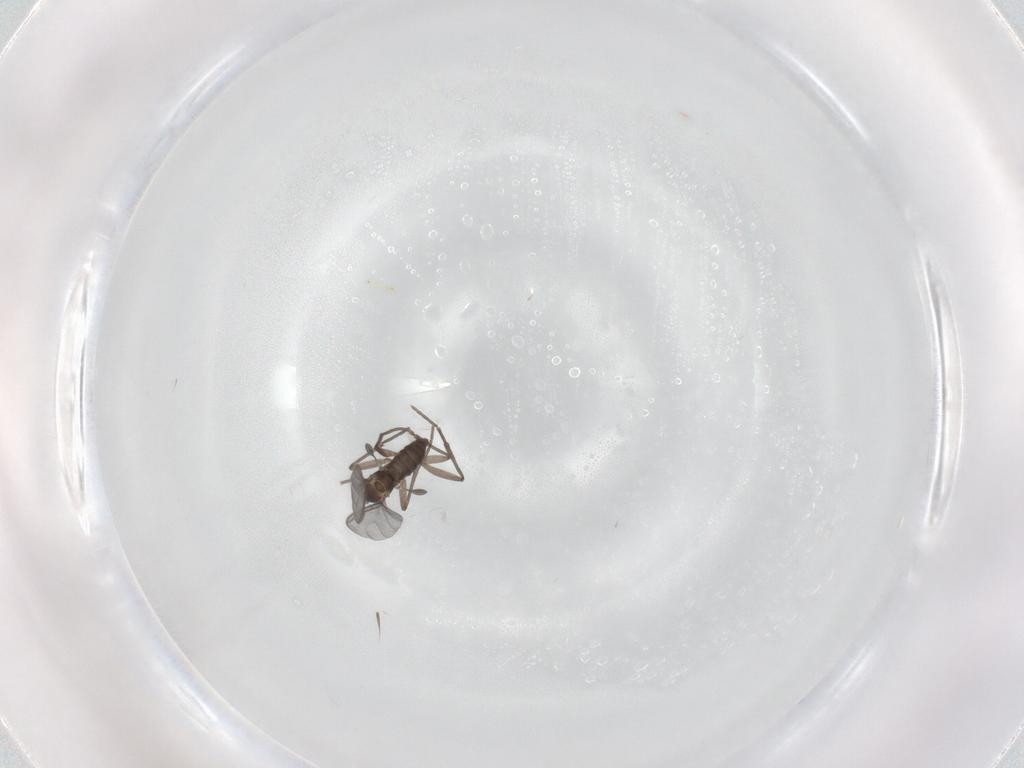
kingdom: Animalia
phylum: Arthropoda
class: Insecta
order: Diptera
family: Sciaridae
